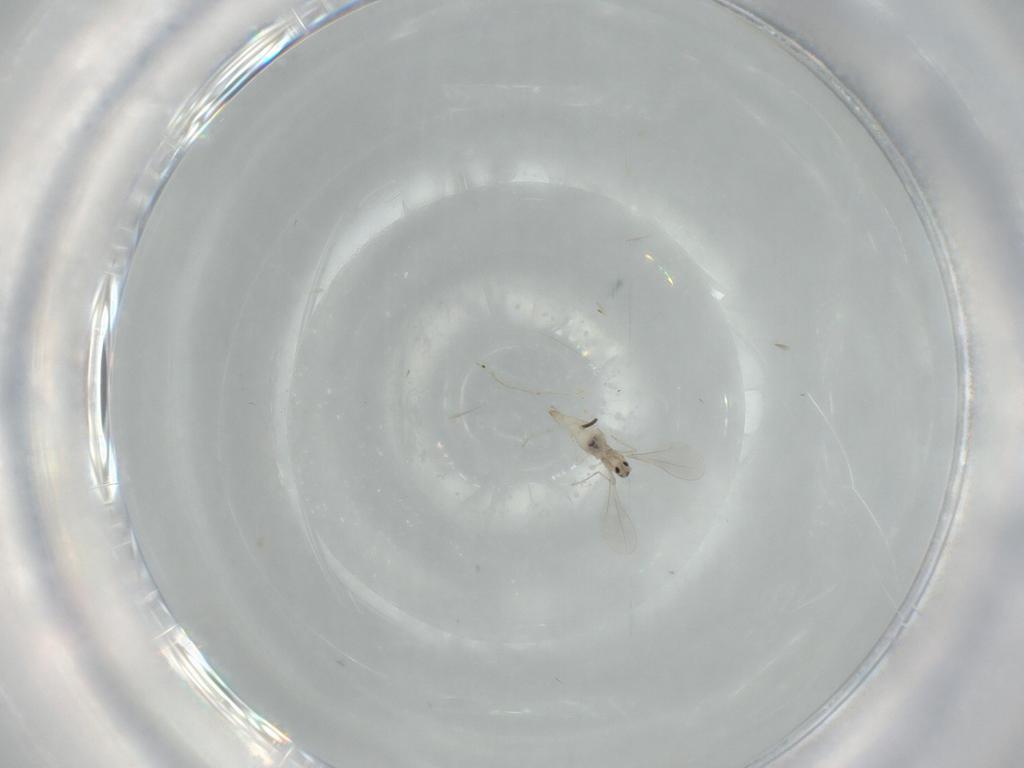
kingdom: Animalia
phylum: Arthropoda
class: Insecta
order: Diptera
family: Cecidomyiidae
